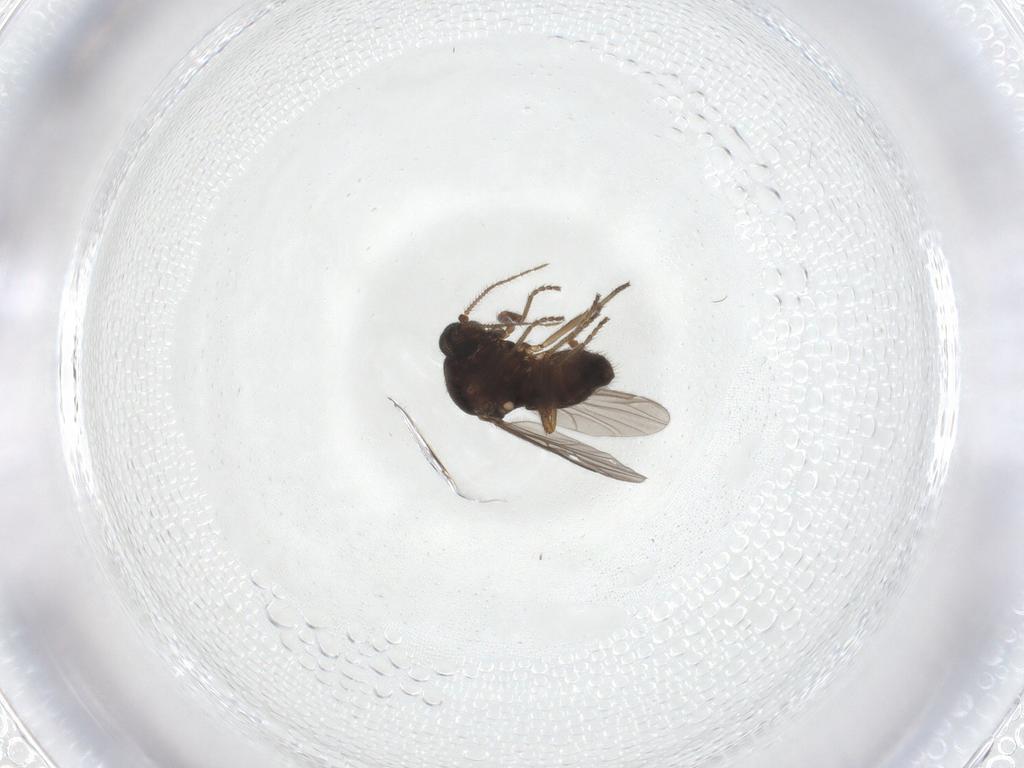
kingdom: Animalia
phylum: Arthropoda
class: Insecta
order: Diptera
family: Ceratopogonidae
